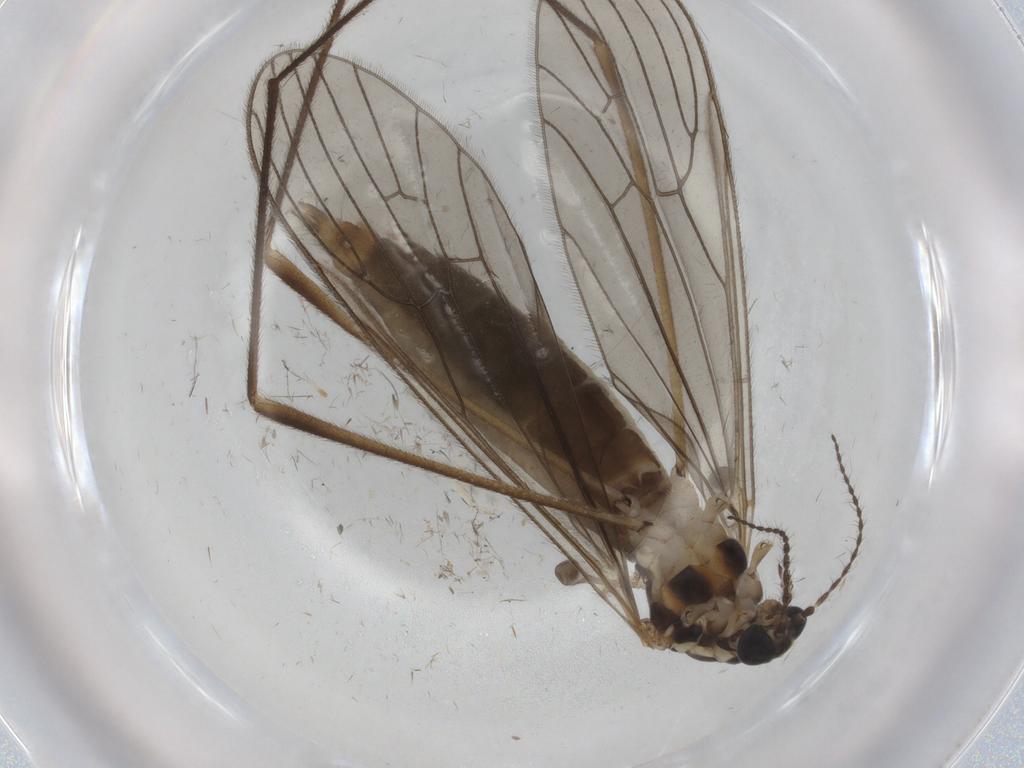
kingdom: Animalia
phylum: Arthropoda
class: Insecta
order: Diptera
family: Limoniidae
